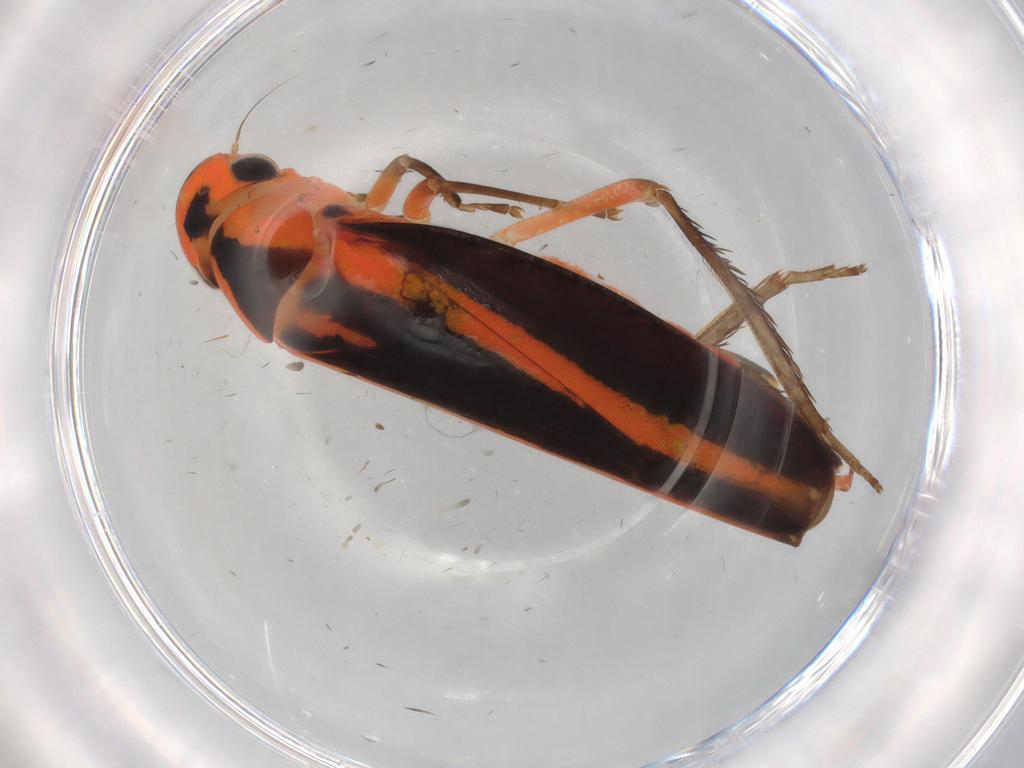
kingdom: Animalia
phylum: Arthropoda
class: Insecta
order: Hemiptera
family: Cicadellidae
